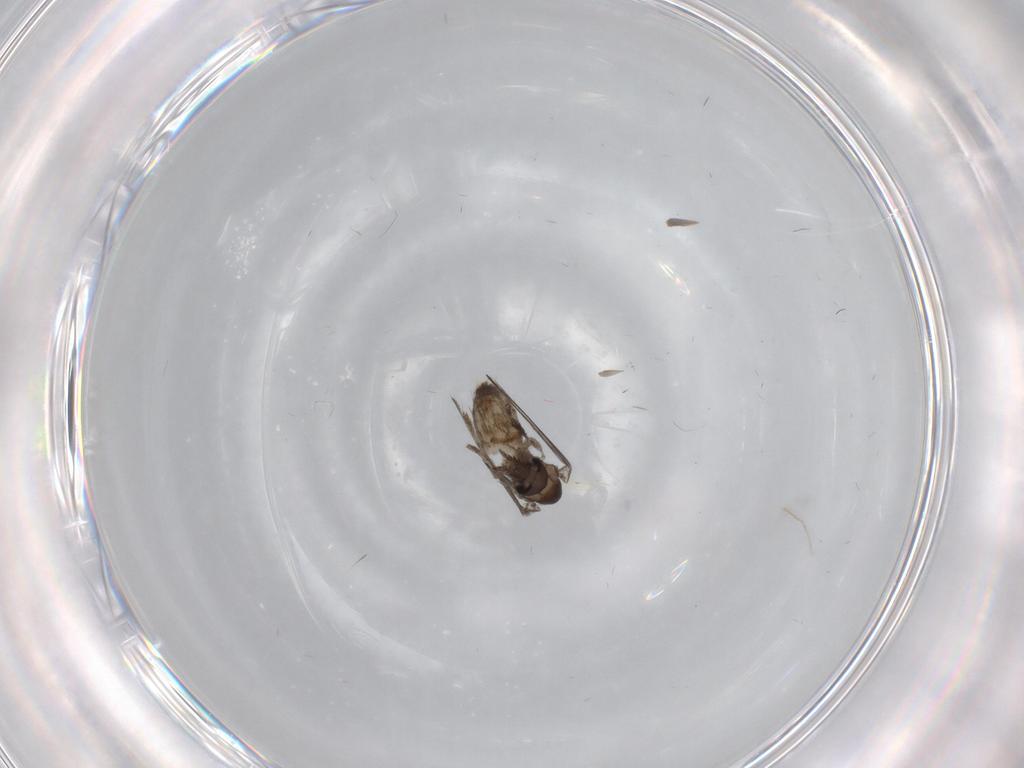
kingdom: Animalia
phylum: Arthropoda
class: Insecta
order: Diptera
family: Psychodidae
